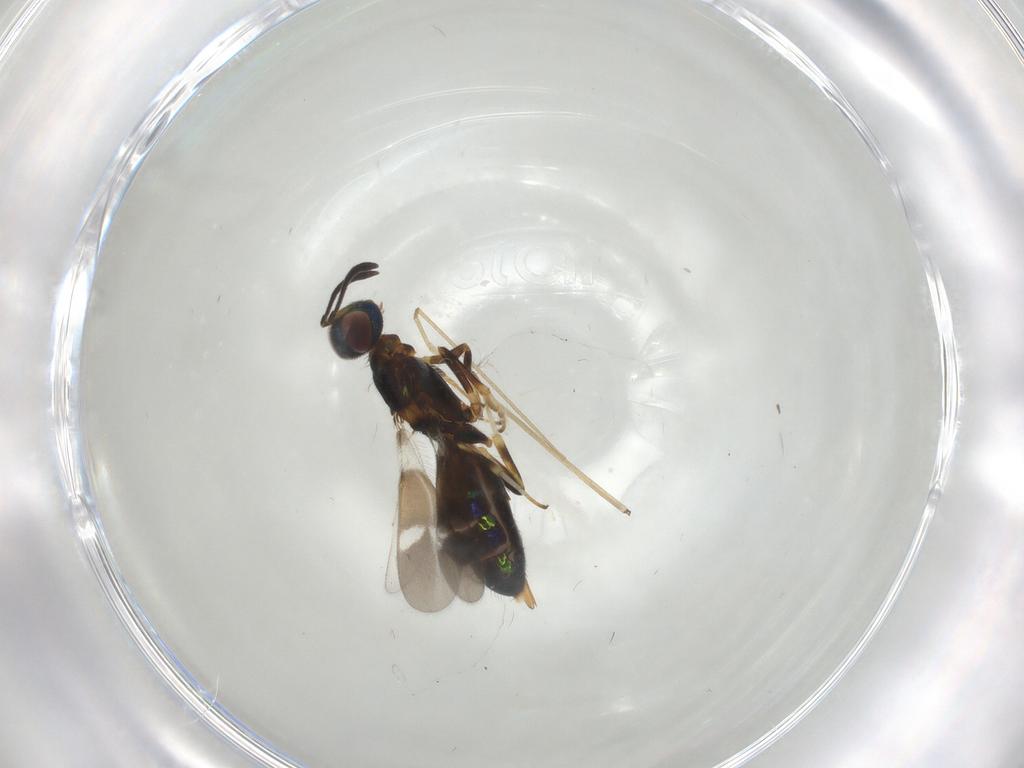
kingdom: Animalia
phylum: Arthropoda
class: Insecta
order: Hymenoptera
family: Eupelmidae
